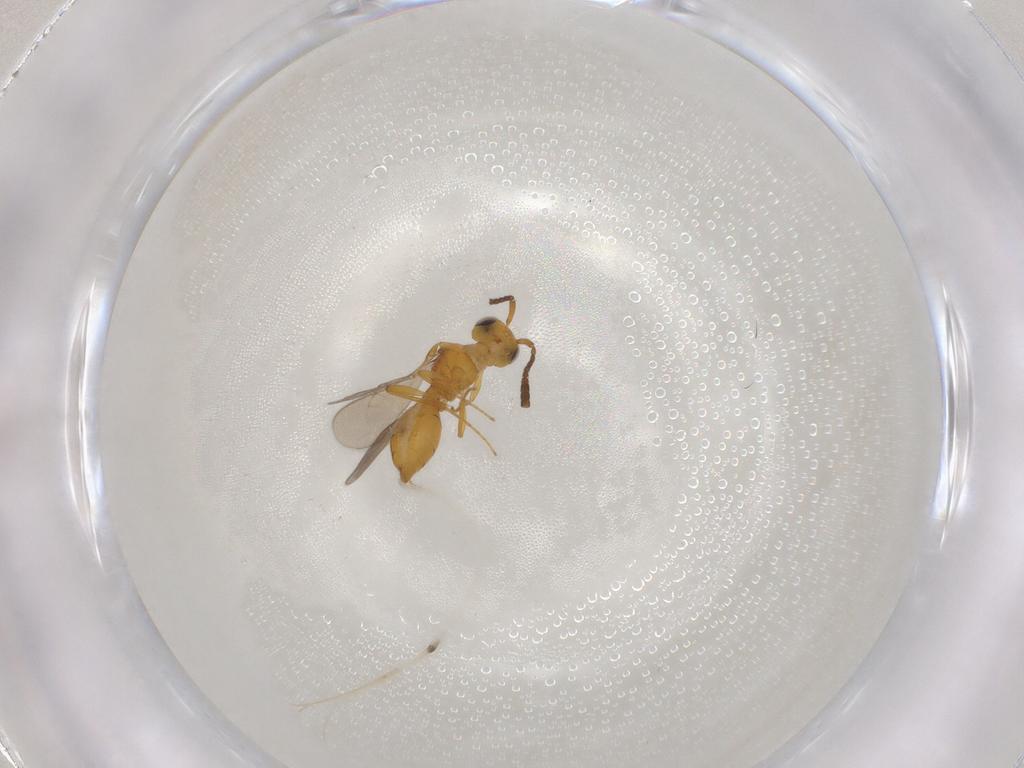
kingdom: Animalia
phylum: Arthropoda
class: Insecta
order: Hymenoptera
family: Scelionidae
